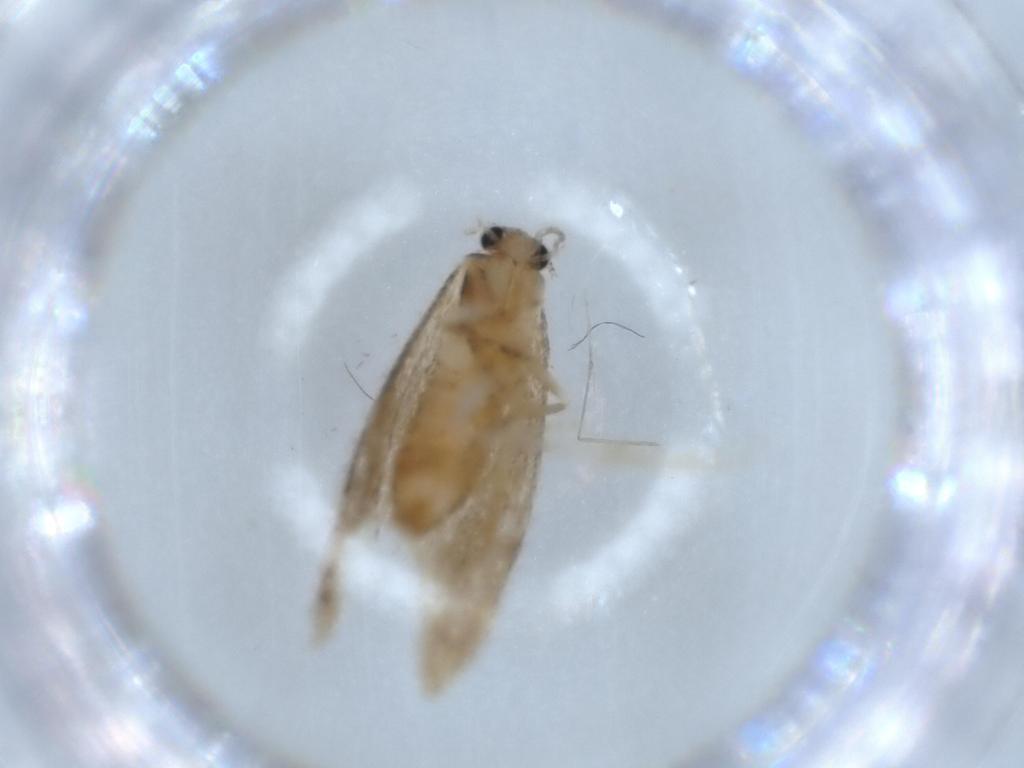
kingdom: Animalia
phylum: Arthropoda
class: Insecta
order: Lepidoptera
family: Tineidae
